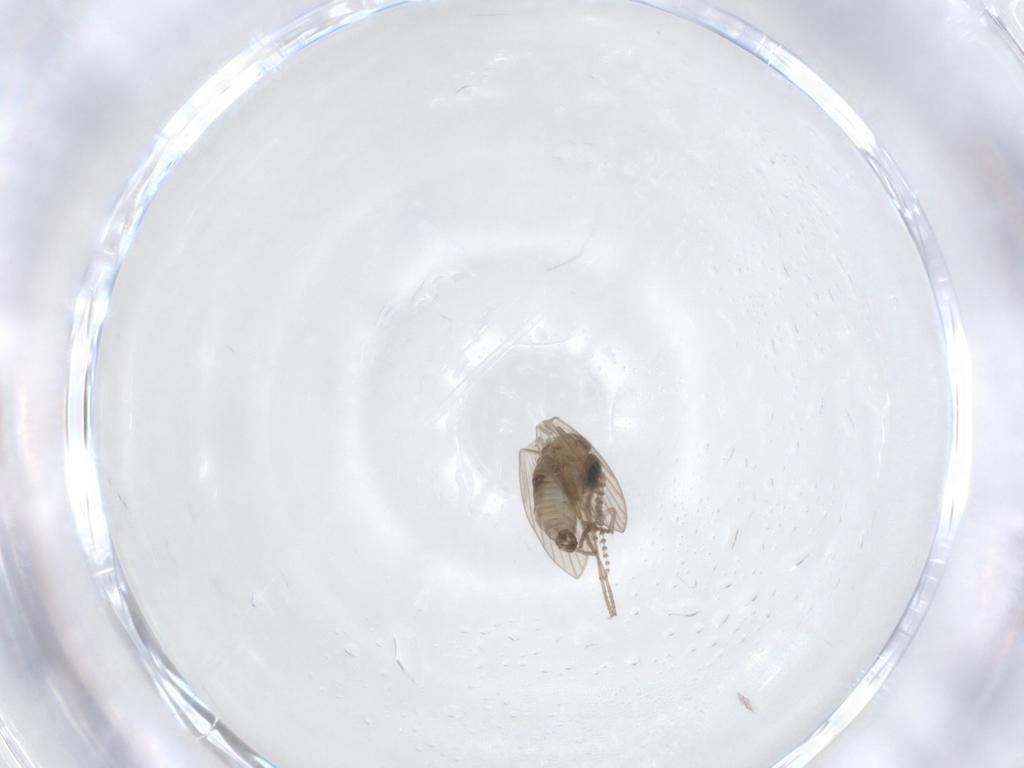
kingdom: Animalia
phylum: Arthropoda
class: Insecta
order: Diptera
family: Psychodidae
